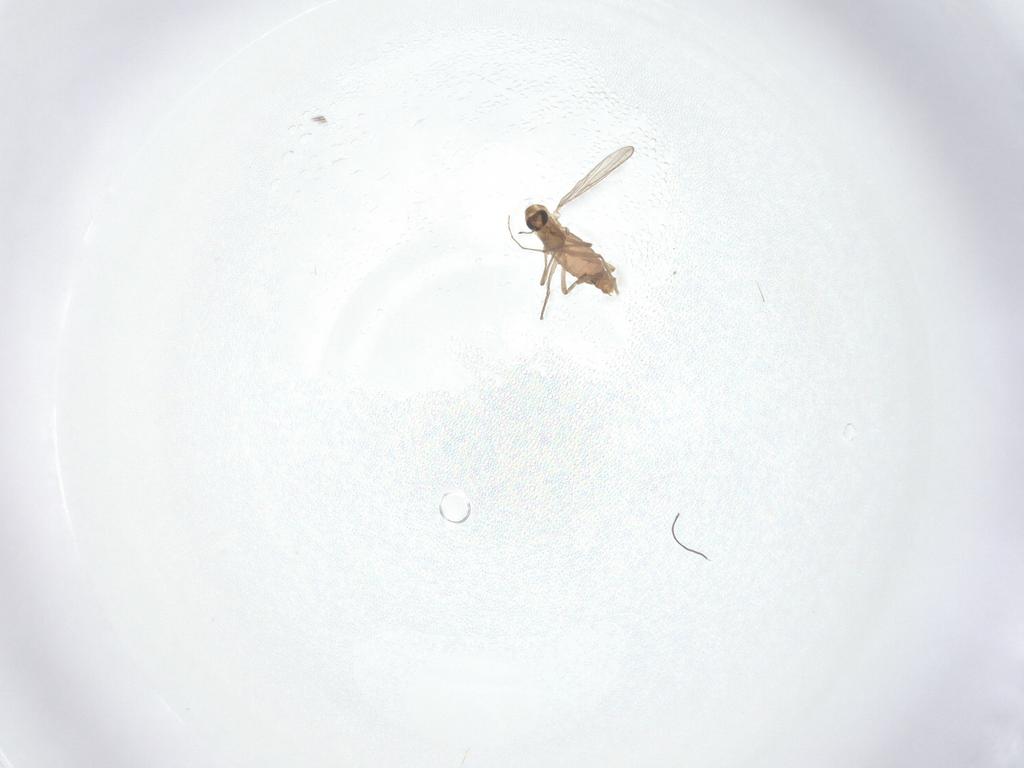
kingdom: Animalia
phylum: Arthropoda
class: Insecta
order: Diptera
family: Chironomidae
